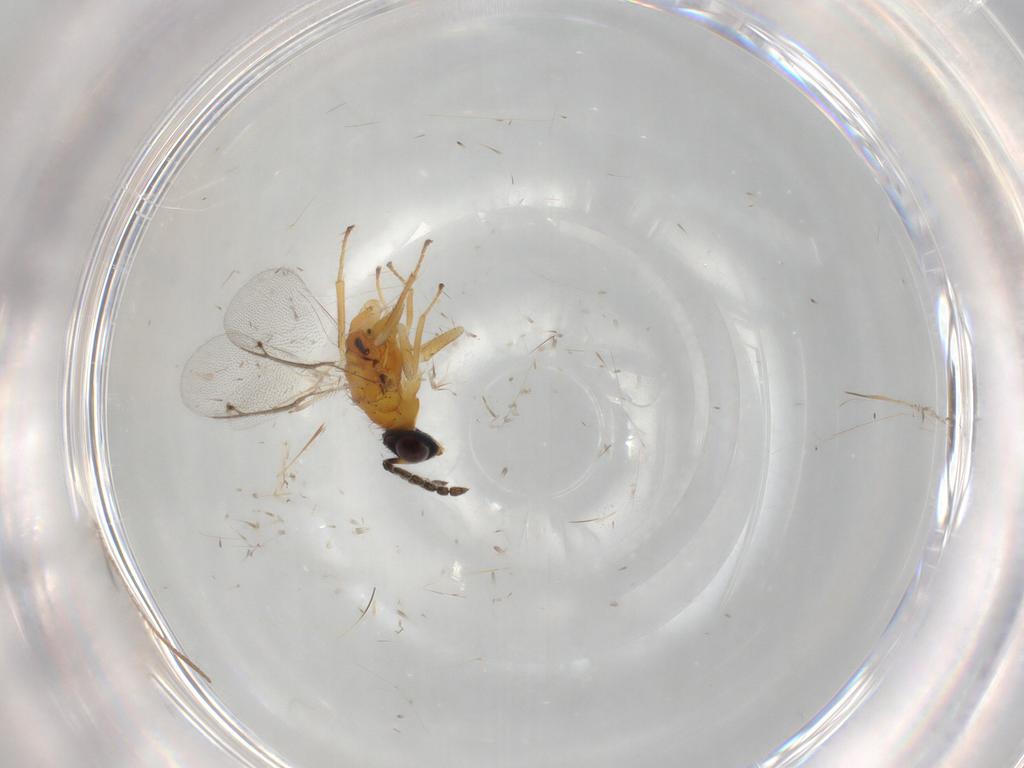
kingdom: Animalia
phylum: Arthropoda
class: Insecta
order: Hymenoptera
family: Eulophidae
